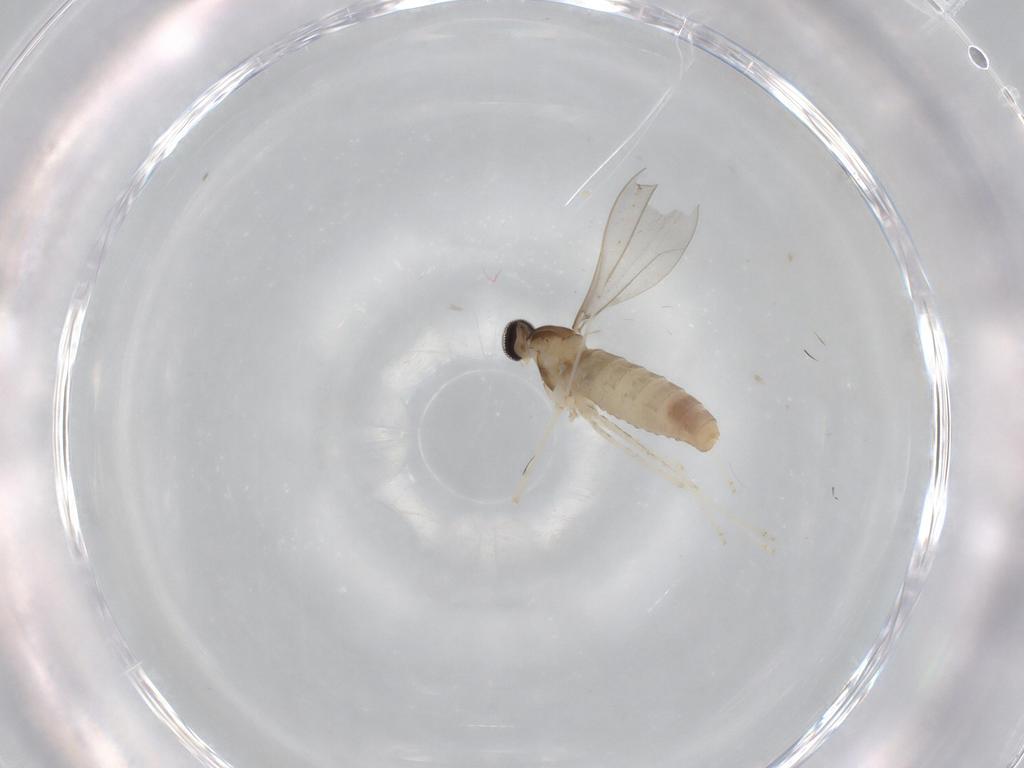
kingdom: Animalia
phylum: Arthropoda
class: Insecta
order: Diptera
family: Cecidomyiidae
